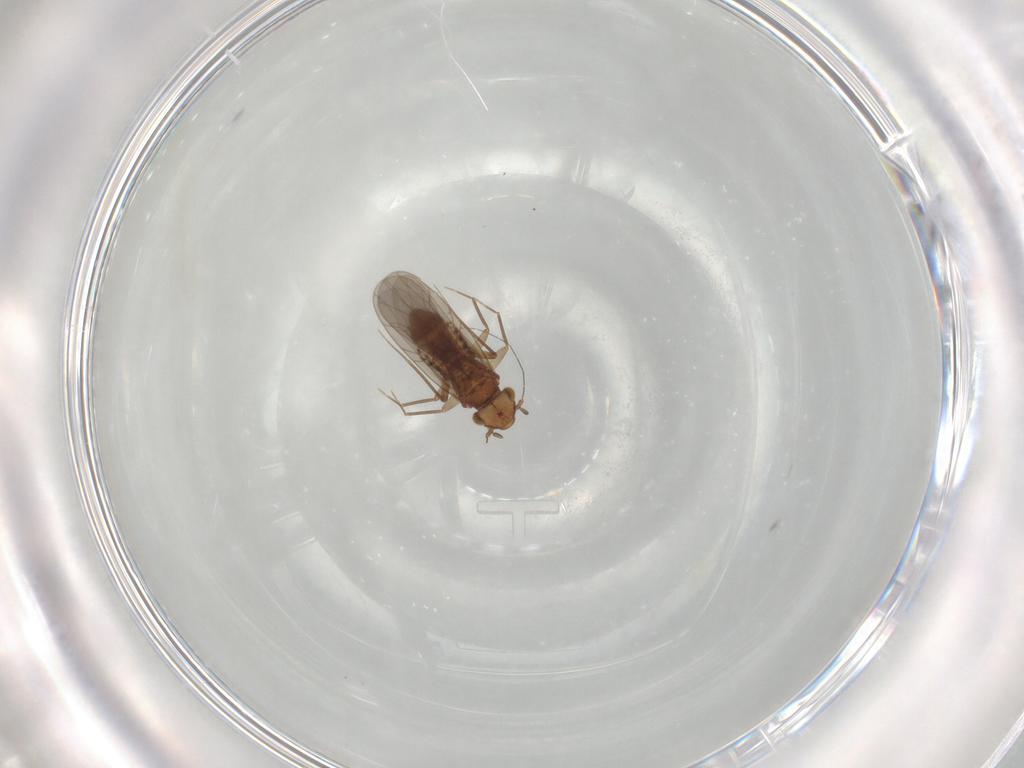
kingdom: Animalia
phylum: Arthropoda
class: Insecta
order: Psocodea
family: Lepidopsocidae
